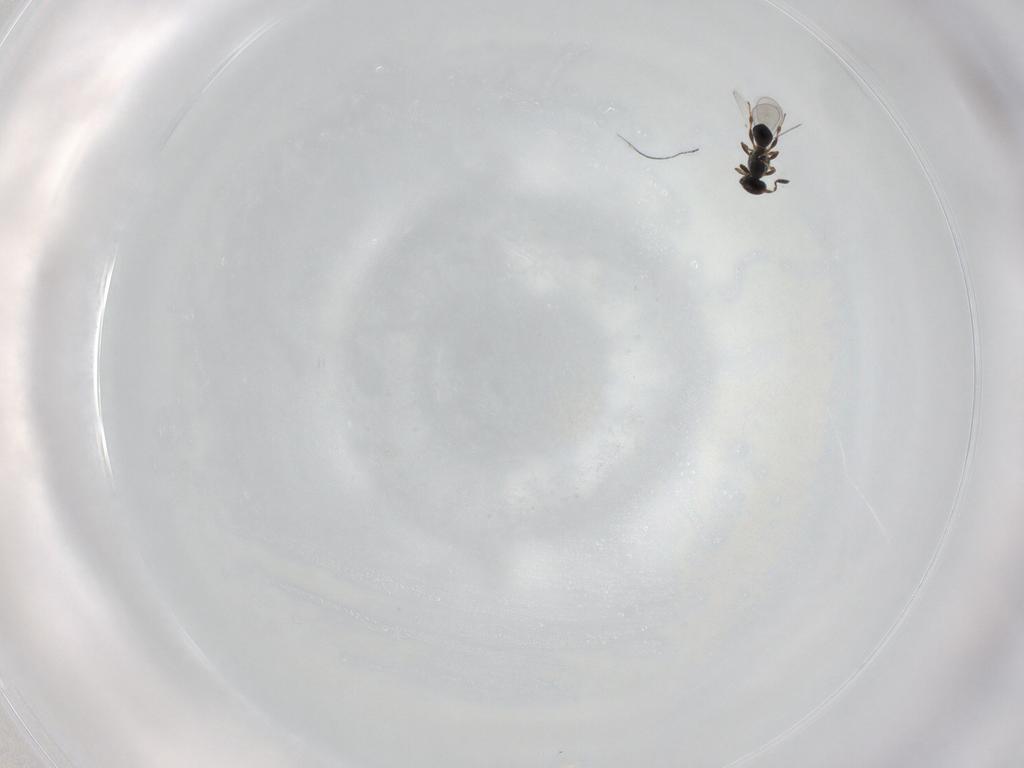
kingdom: Animalia
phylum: Arthropoda
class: Insecta
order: Hymenoptera
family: Platygastridae
